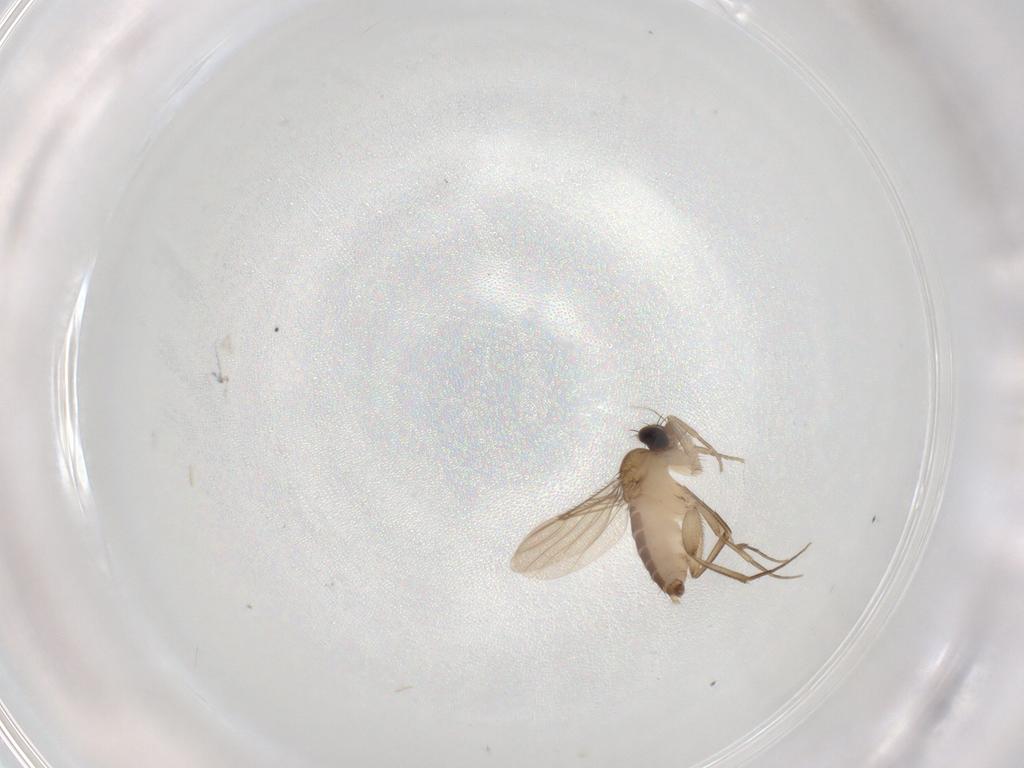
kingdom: Animalia
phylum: Arthropoda
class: Insecta
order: Diptera
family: Phoridae
